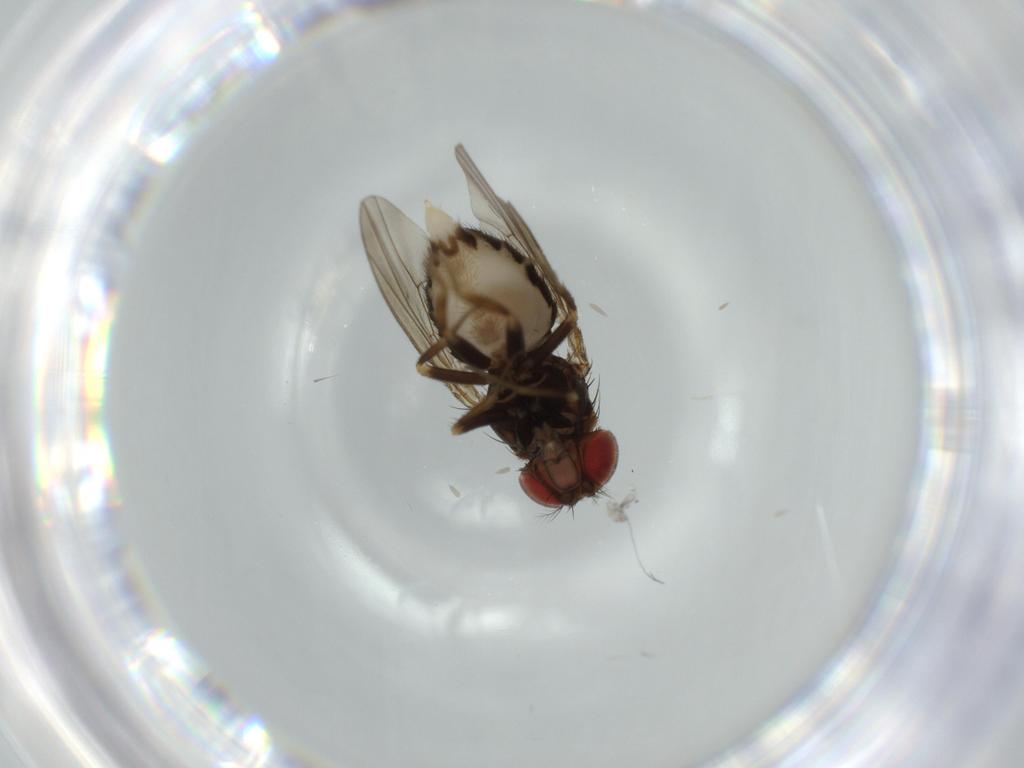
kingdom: Animalia
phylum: Arthropoda
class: Insecta
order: Diptera
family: Drosophilidae
